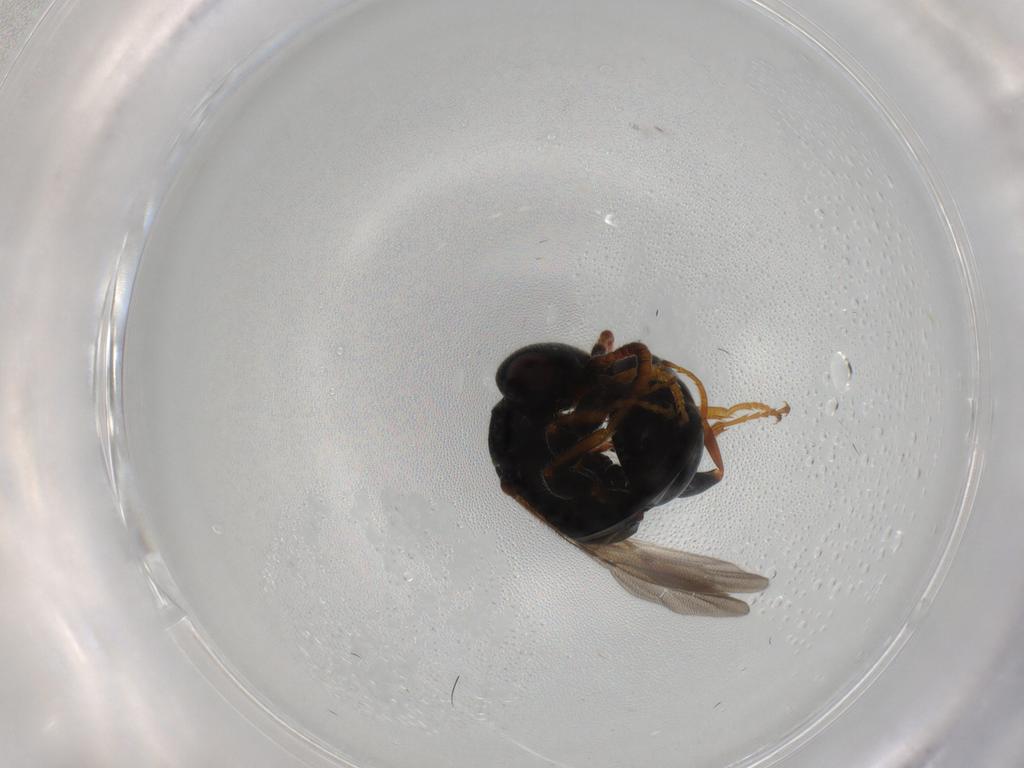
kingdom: Animalia
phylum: Arthropoda
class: Insecta
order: Hymenoptera
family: Bethylidae
